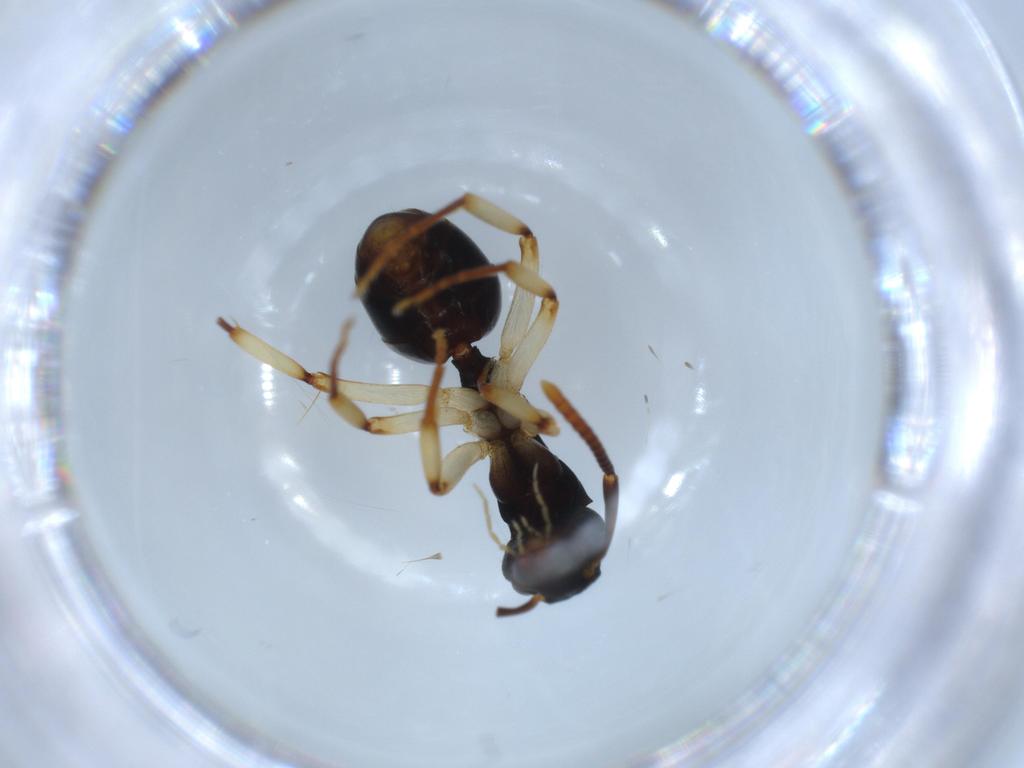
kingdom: Animalia
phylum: Arthropoda
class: Insecta
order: Hymenoptera
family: Formicidae
